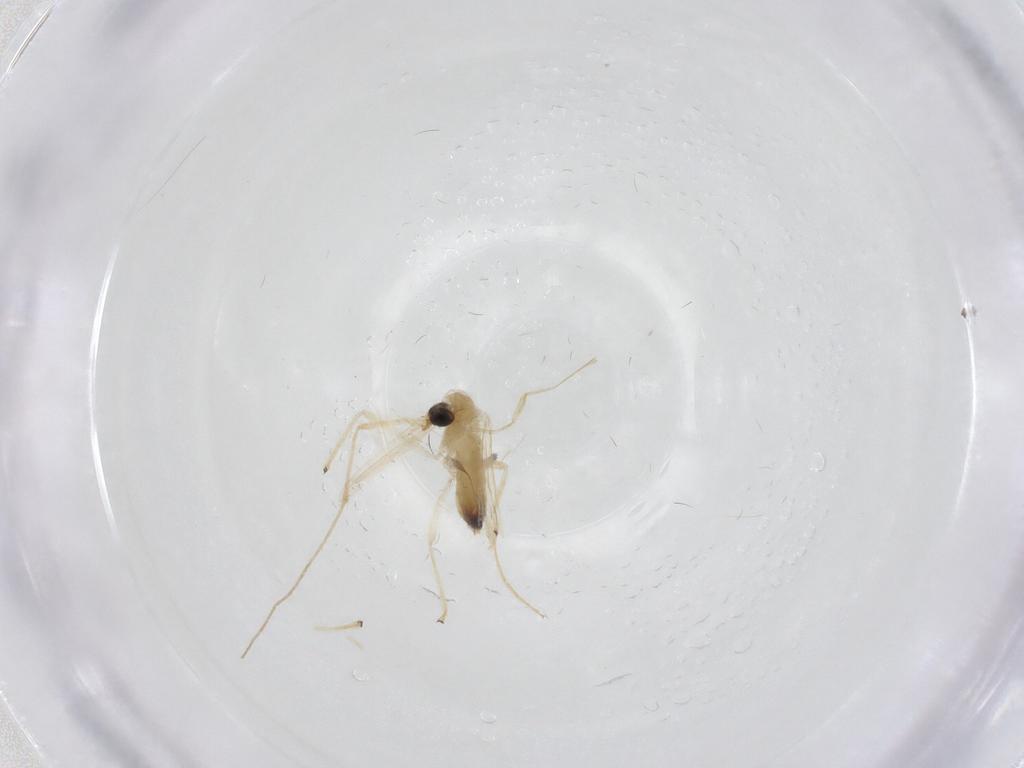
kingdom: Animalia
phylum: Arthropoda
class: Insecta
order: Diptera
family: Chironomidae
